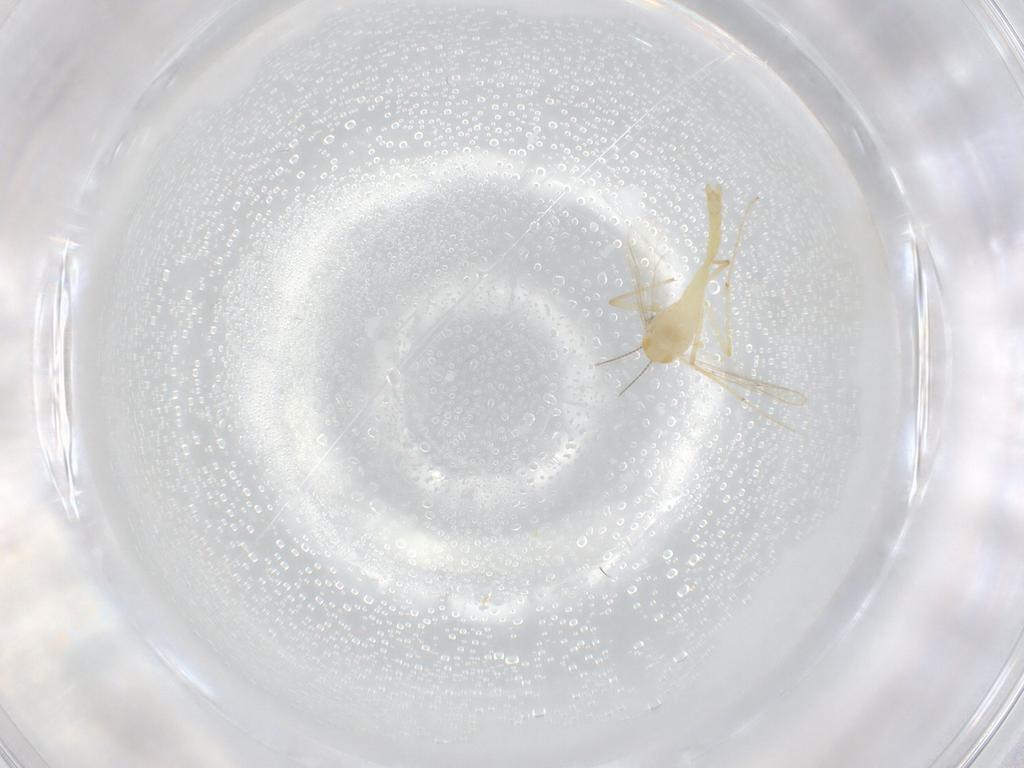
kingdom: Animalia
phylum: Arthropoda
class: Insecta
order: Diptera
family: Chironomidae
